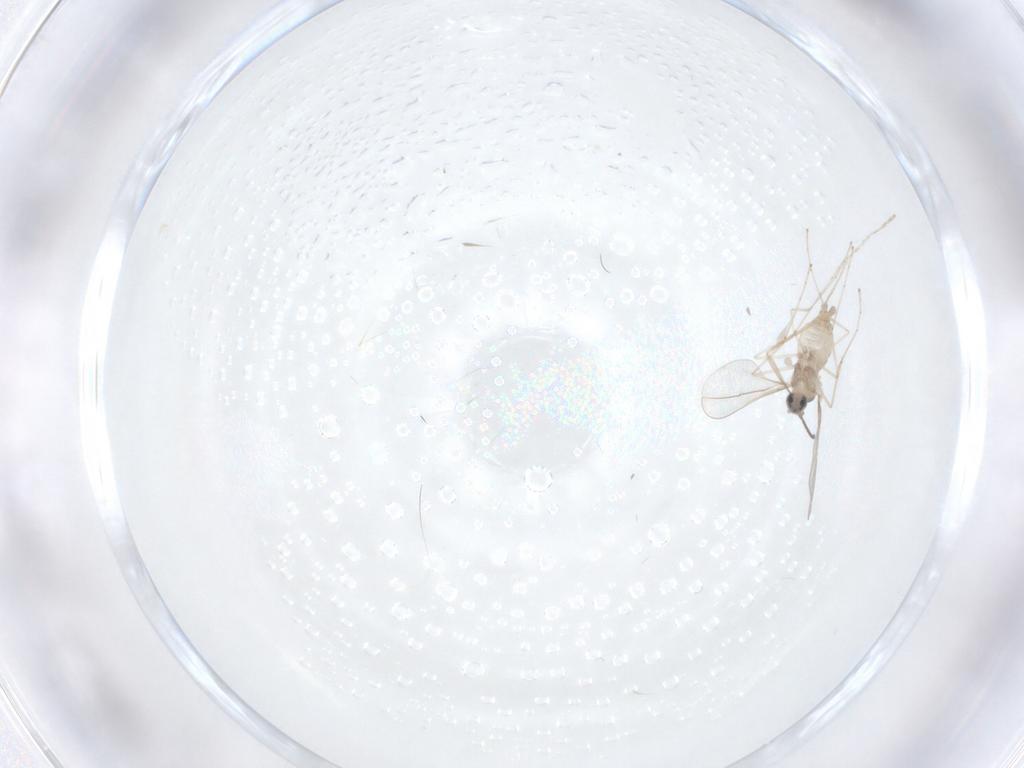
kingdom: Animalia
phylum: Arthropoda
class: Insecta
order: Diptera
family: Cecidomyiidae
